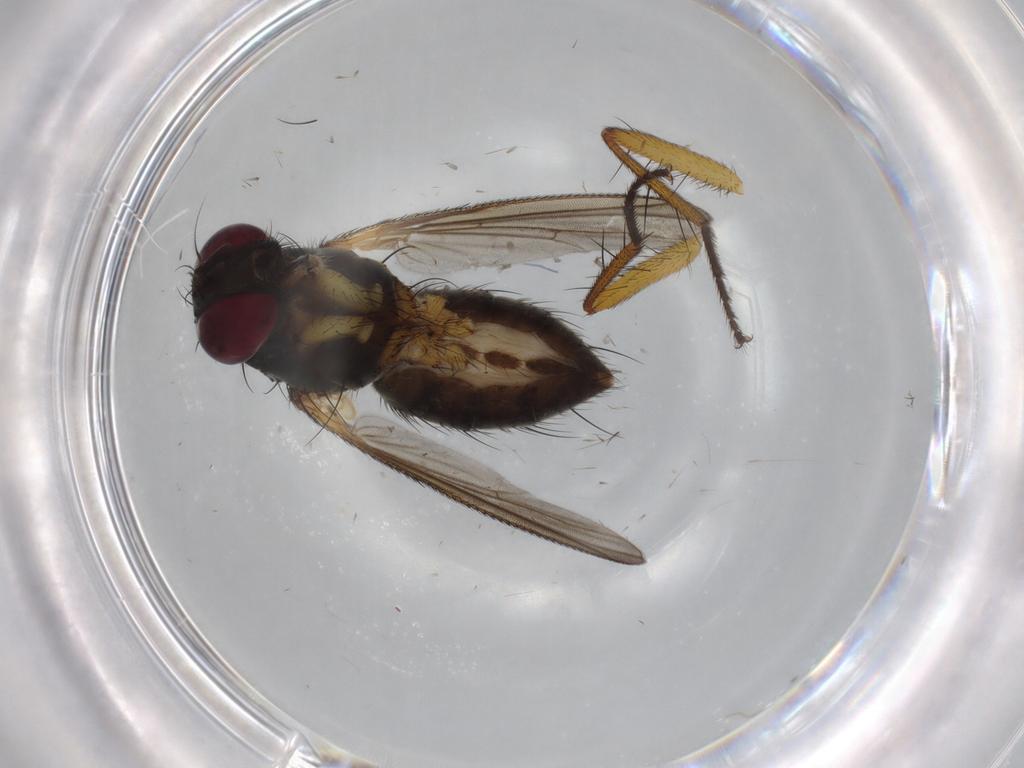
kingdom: Animalia
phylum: Arthropoda
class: Insecta
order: Diptera
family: Muscidae
